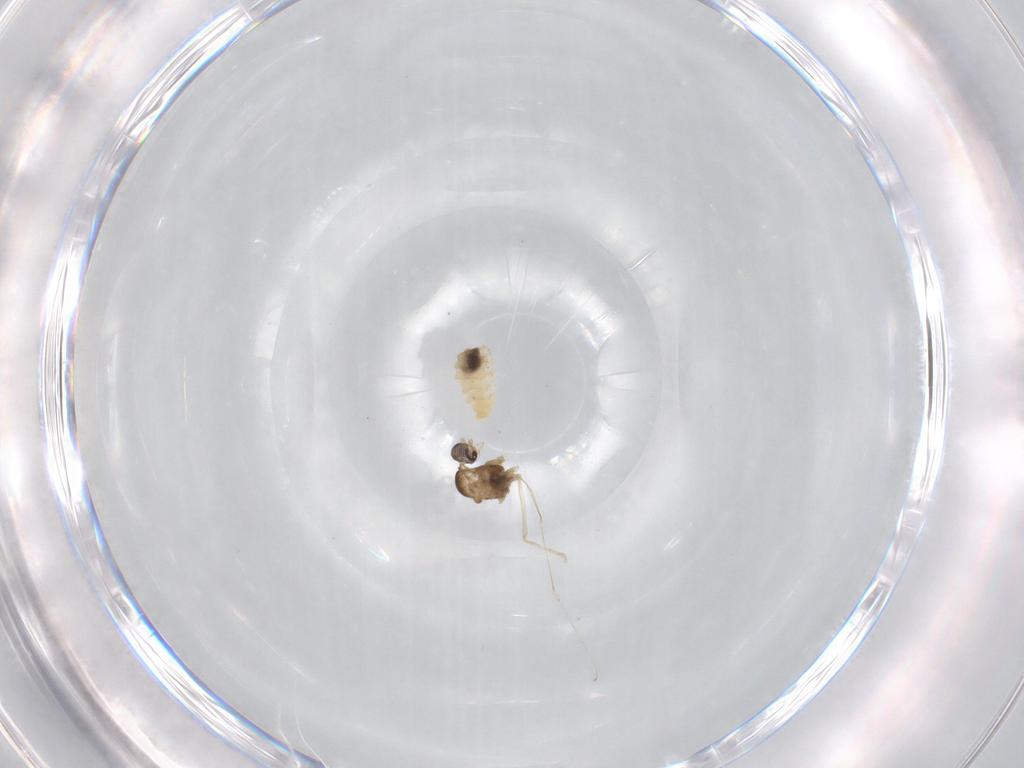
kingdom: Animalia
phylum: Arthropoda
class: Insecta
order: Diptera
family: Cecidomyiidae
